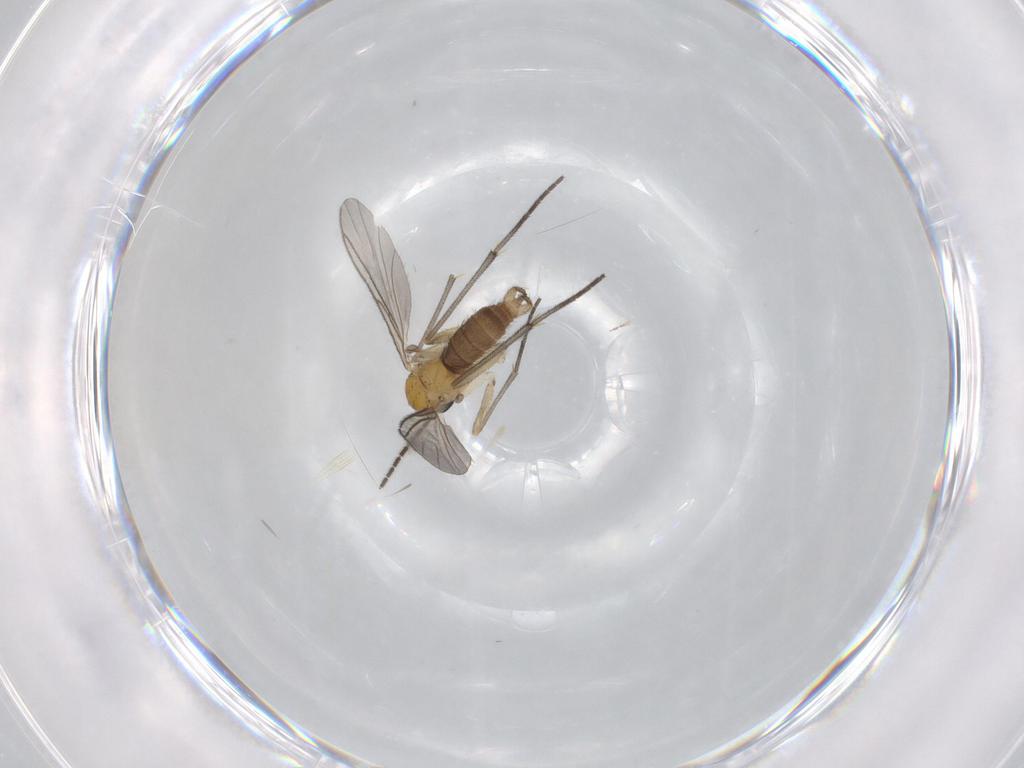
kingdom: Animalia
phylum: Arthropoda
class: Insecta
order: Diptera
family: Sciaridae
